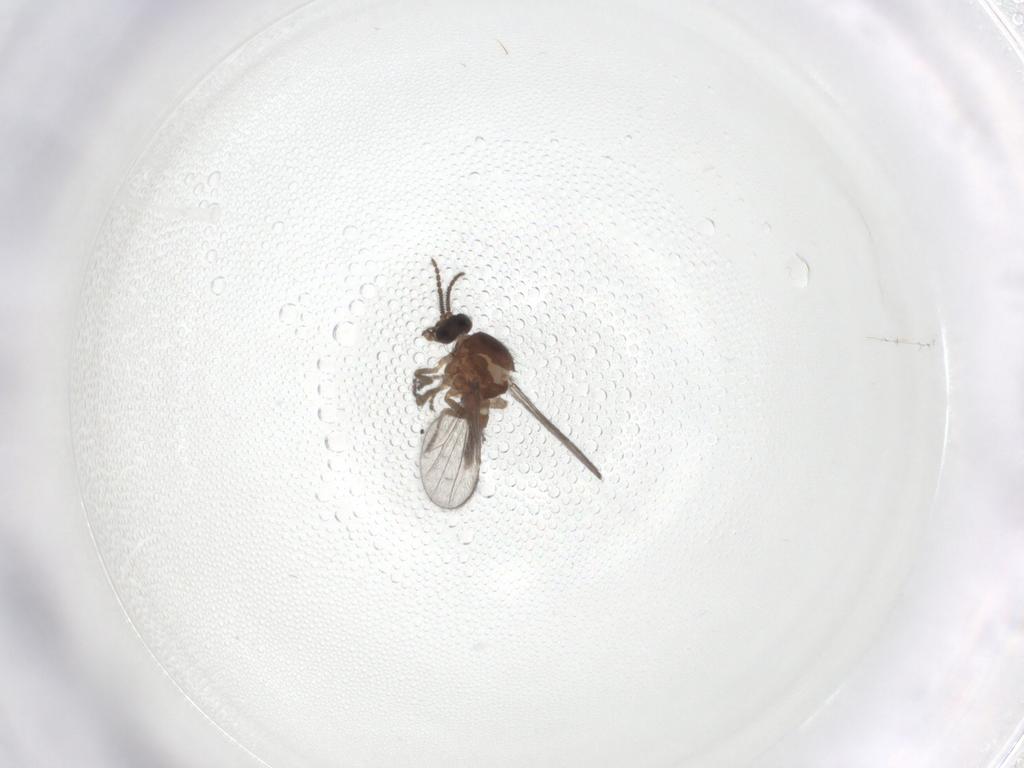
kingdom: Animalia
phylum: Arthropoda
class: Insecta
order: Diptera
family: Ceratopogonidae
